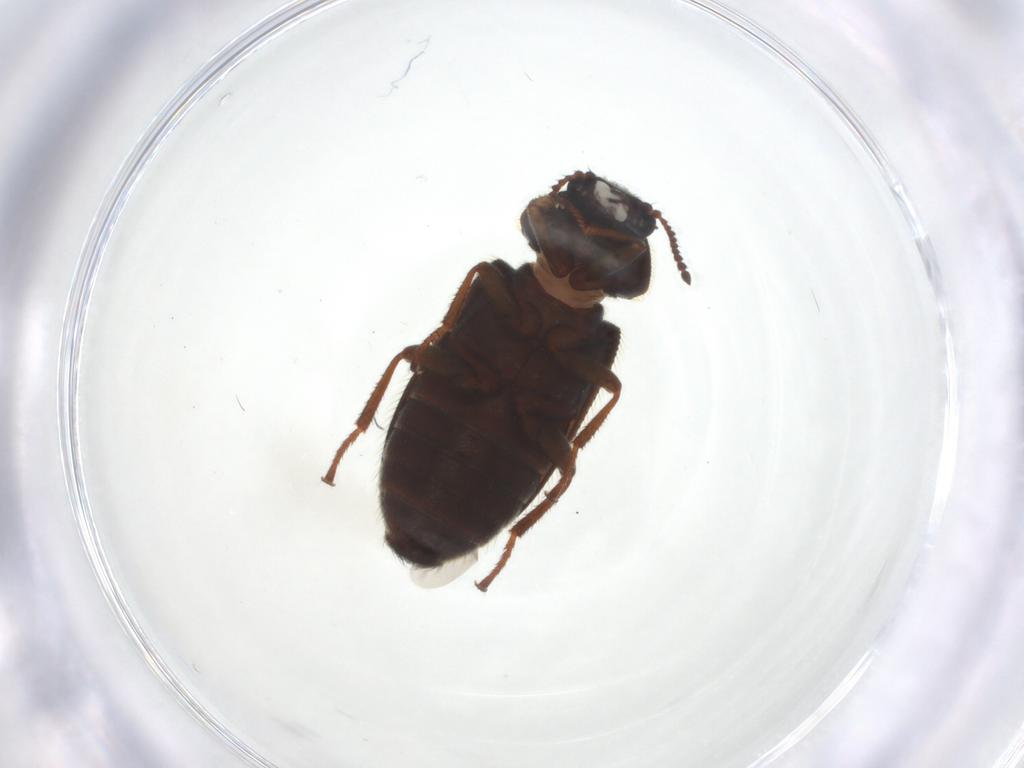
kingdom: Animalia
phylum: Arthropoda
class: Insecta
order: Coleoptera
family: Melyridae
